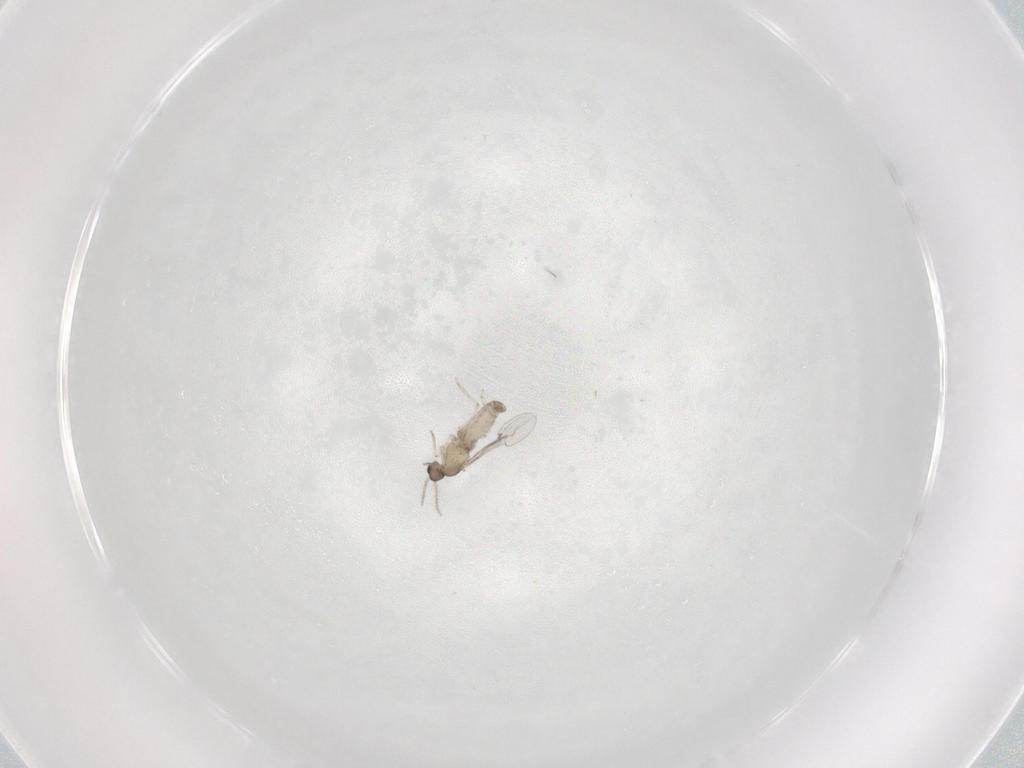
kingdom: Animalia
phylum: Arthropoda
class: Insecta
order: Diptera
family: Cecidomyiidae
